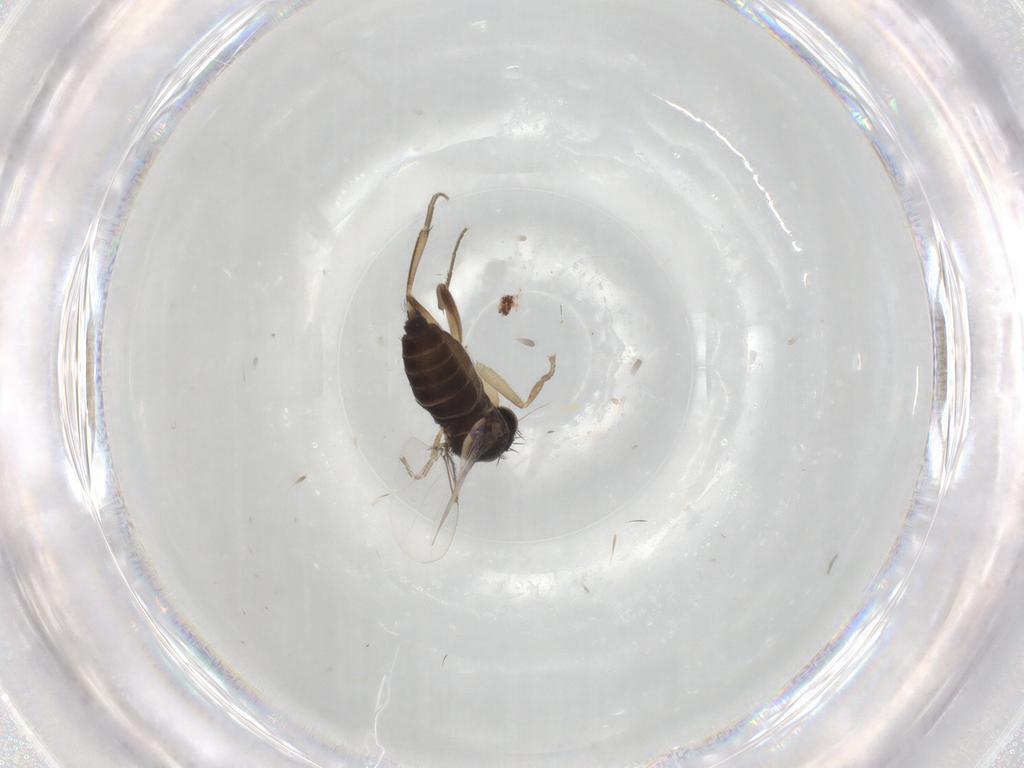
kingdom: Animalia
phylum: Arthropoda
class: Insecta
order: Diptera
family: Phoridae
